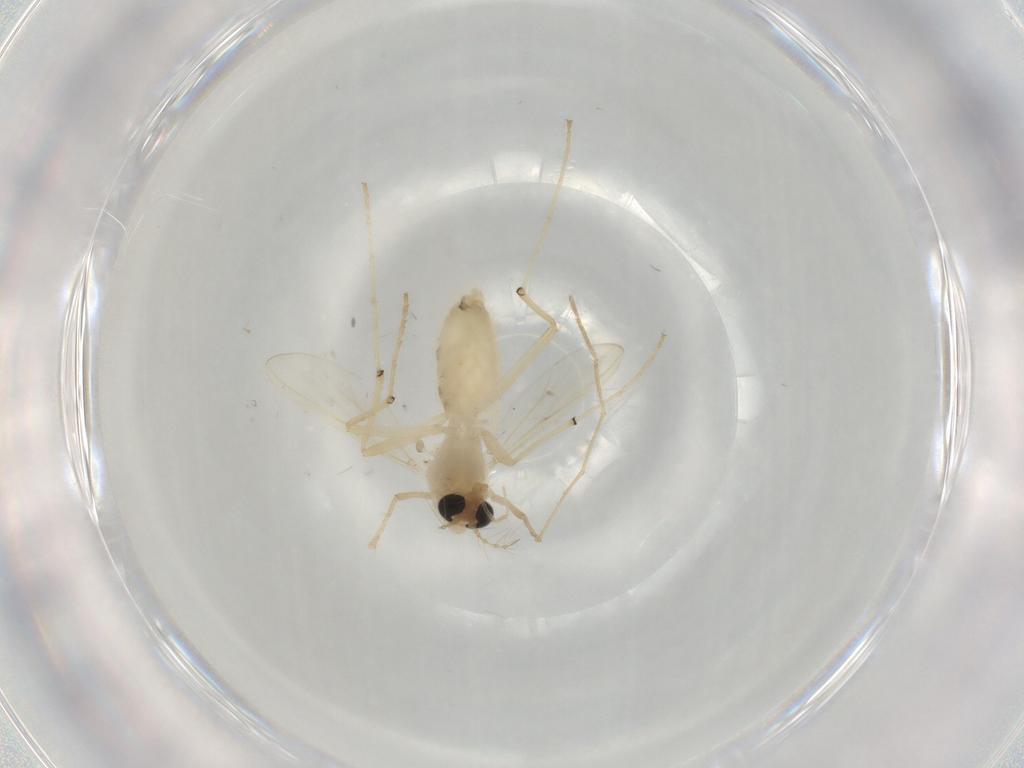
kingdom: Animalia
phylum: Arthropoda
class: Insecta
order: Diptera
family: Chironomidae
